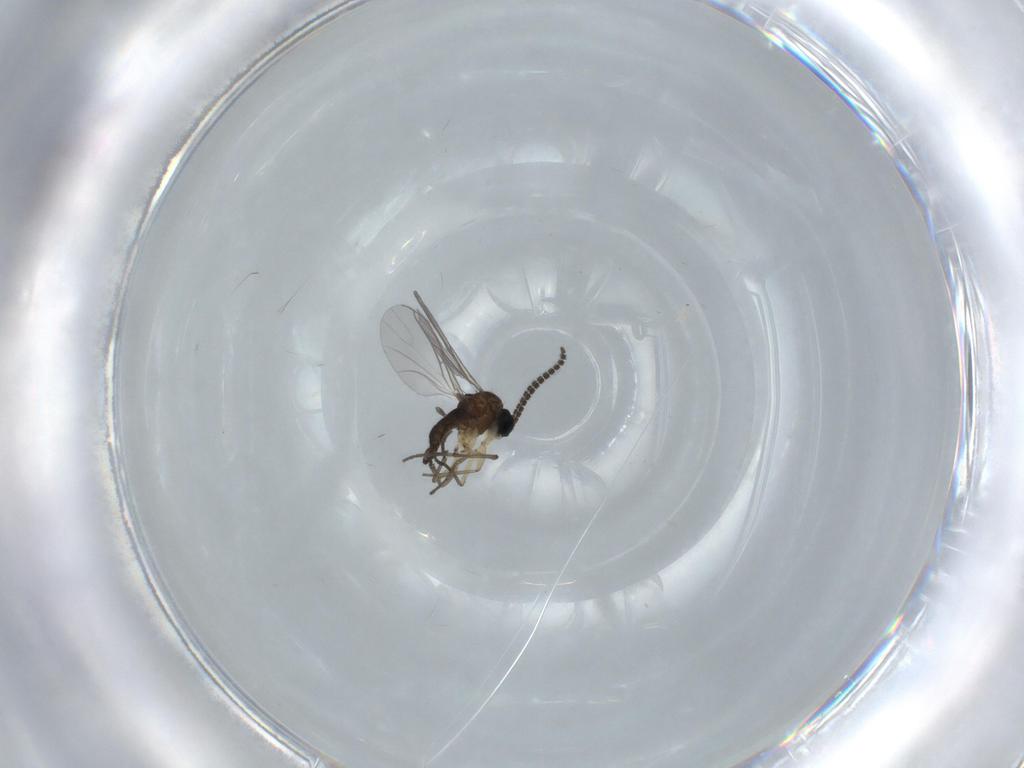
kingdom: Animalia
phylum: Arthropoda
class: Insecta
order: Diptera
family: Sciaridae
